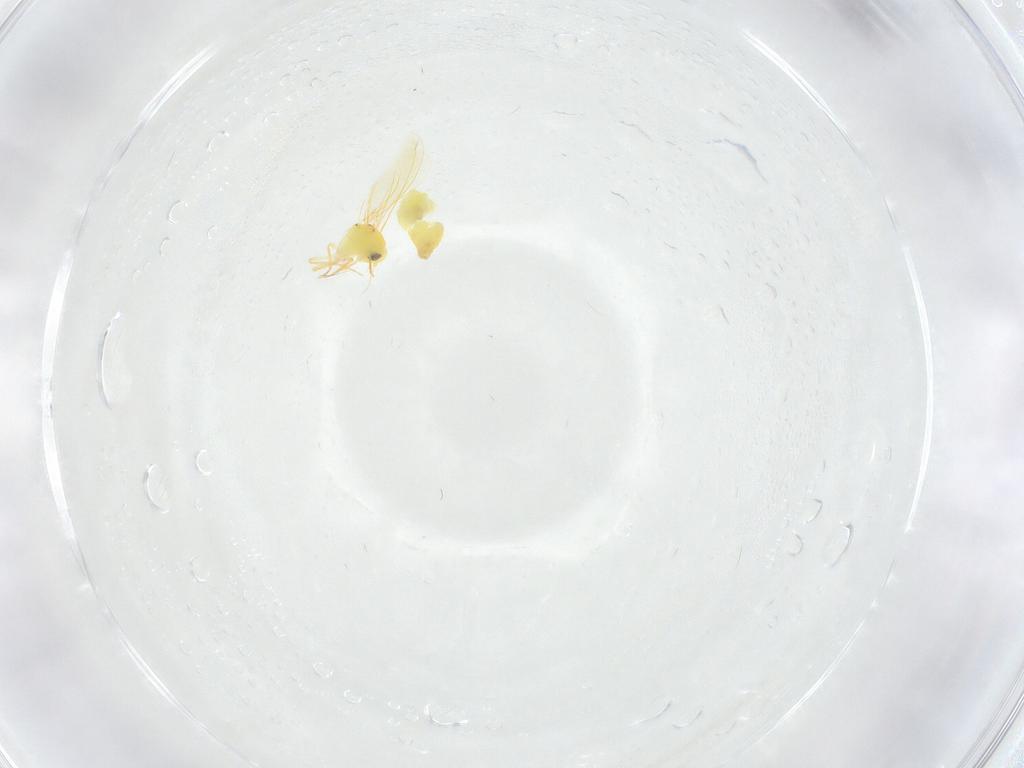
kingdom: Animalia
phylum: Arthropoda
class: Insecta
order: Hemiptera
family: Aleyrodidae
